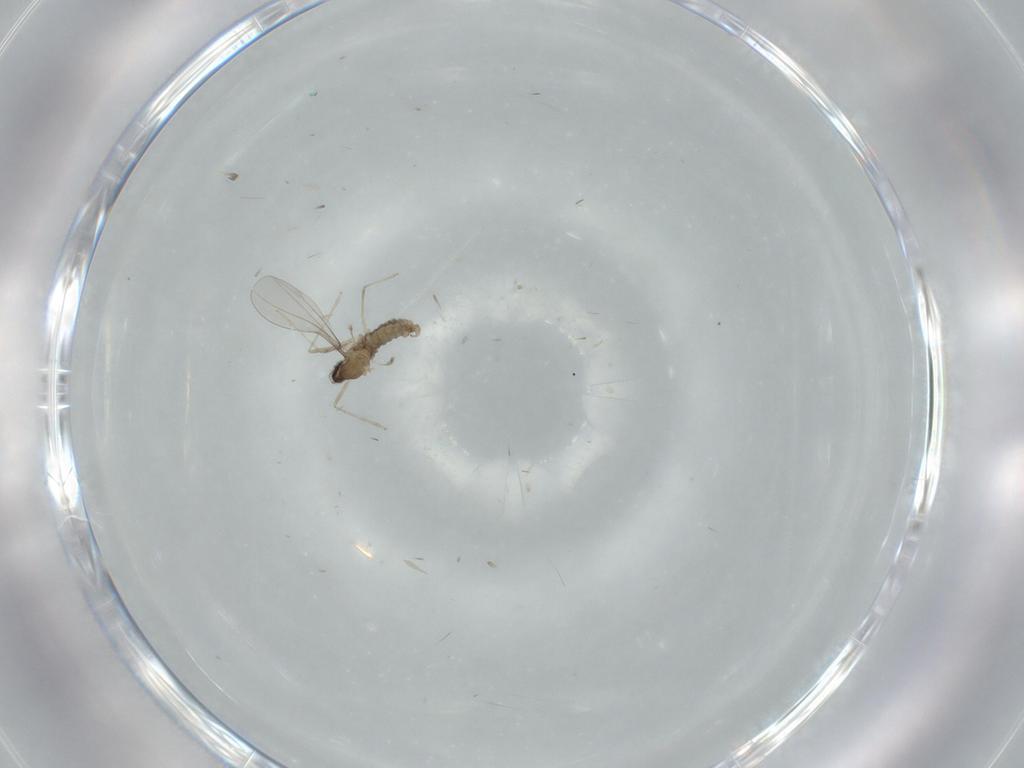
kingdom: Animalia
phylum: Arthropoda
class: Insecta
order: Diptera
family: Cecidomyiidae
